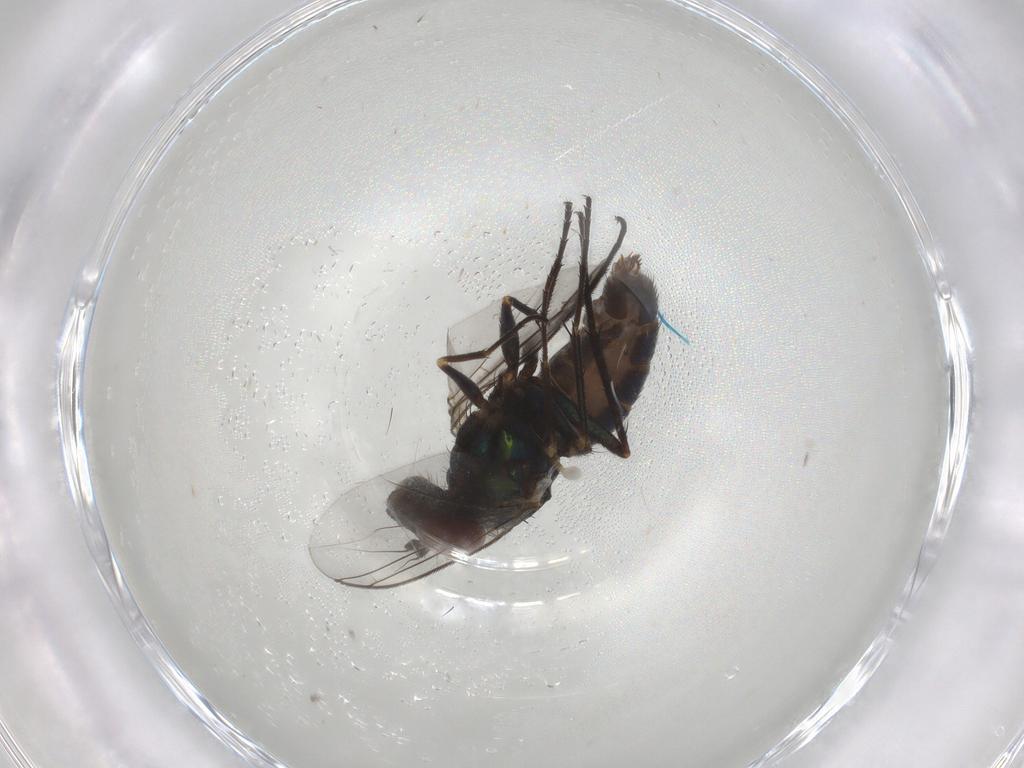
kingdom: Animalia
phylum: Arthropoda
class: Insecta
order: Diptera
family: Dolichopodidae
